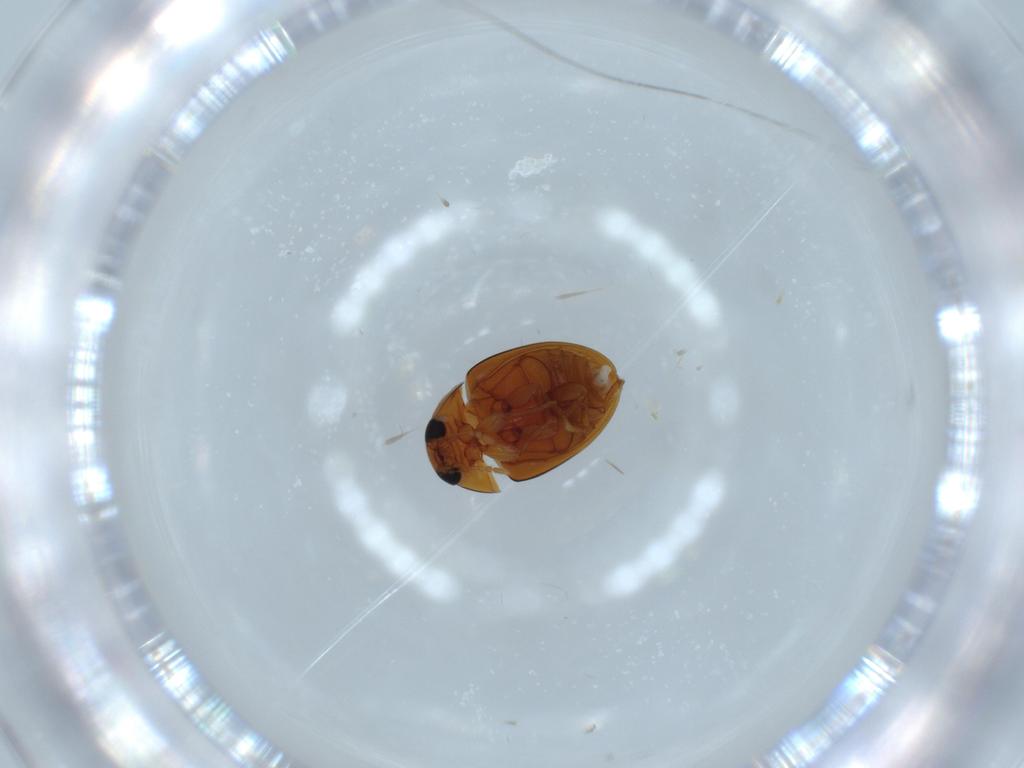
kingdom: Animalia
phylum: Arthropoda
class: Insecta
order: Coleoptera
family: Phalacridae
